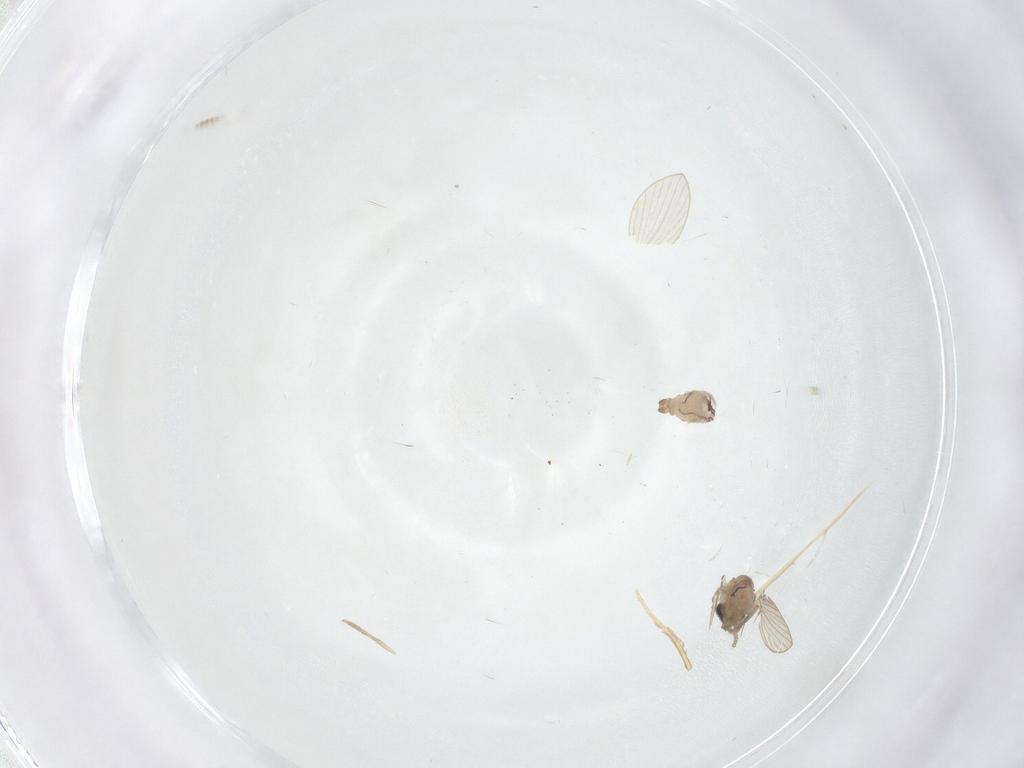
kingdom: Animalia
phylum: Arthropoda
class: Insecta
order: Diptera
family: Psychodidae
